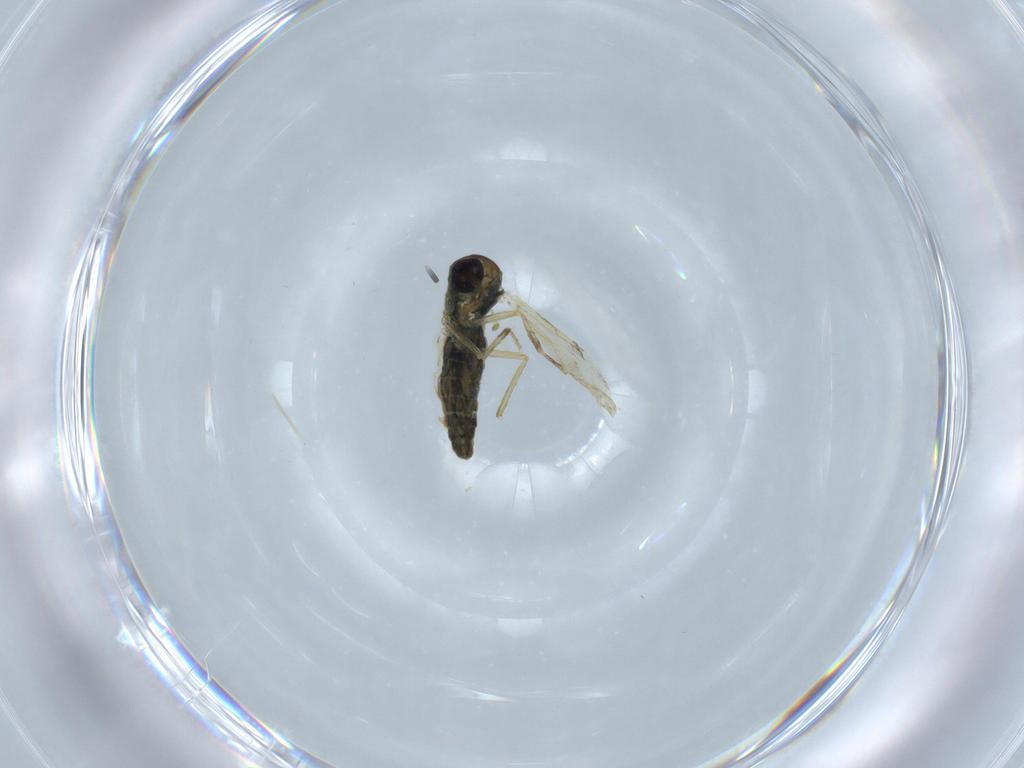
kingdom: Animalia
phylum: Arthropoda
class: Insecta
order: Diptera
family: Ceratopogonidae
